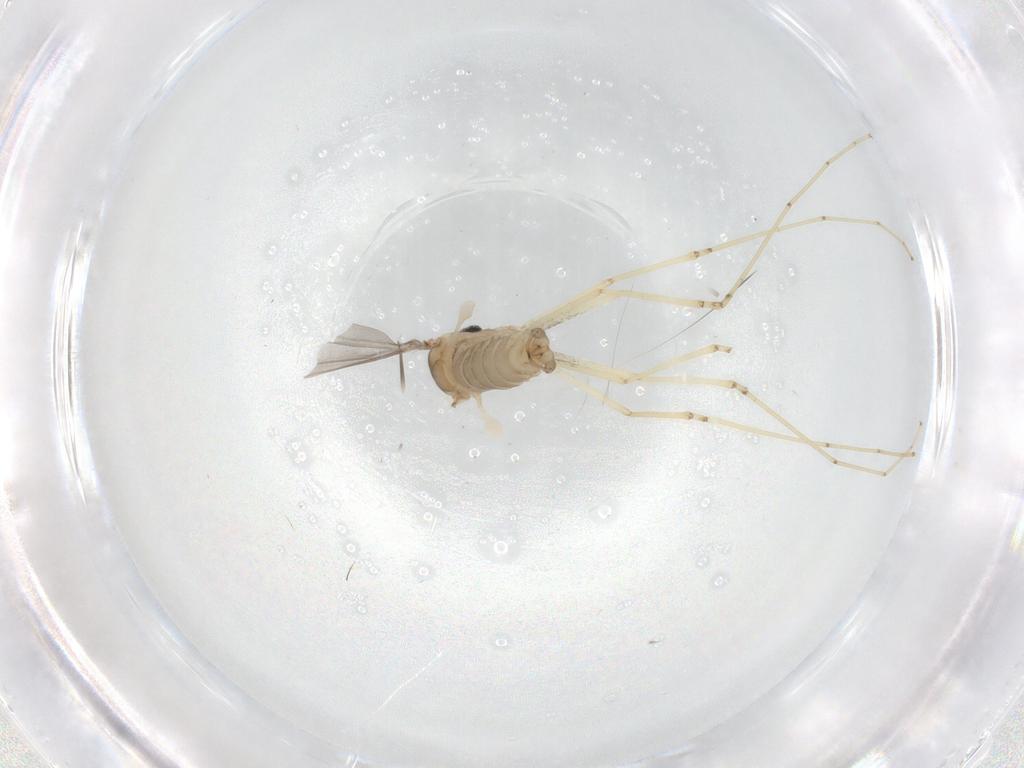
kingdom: Animalia
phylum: Arthropoda
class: Insecta
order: Diptera
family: Cecidomyiidae
